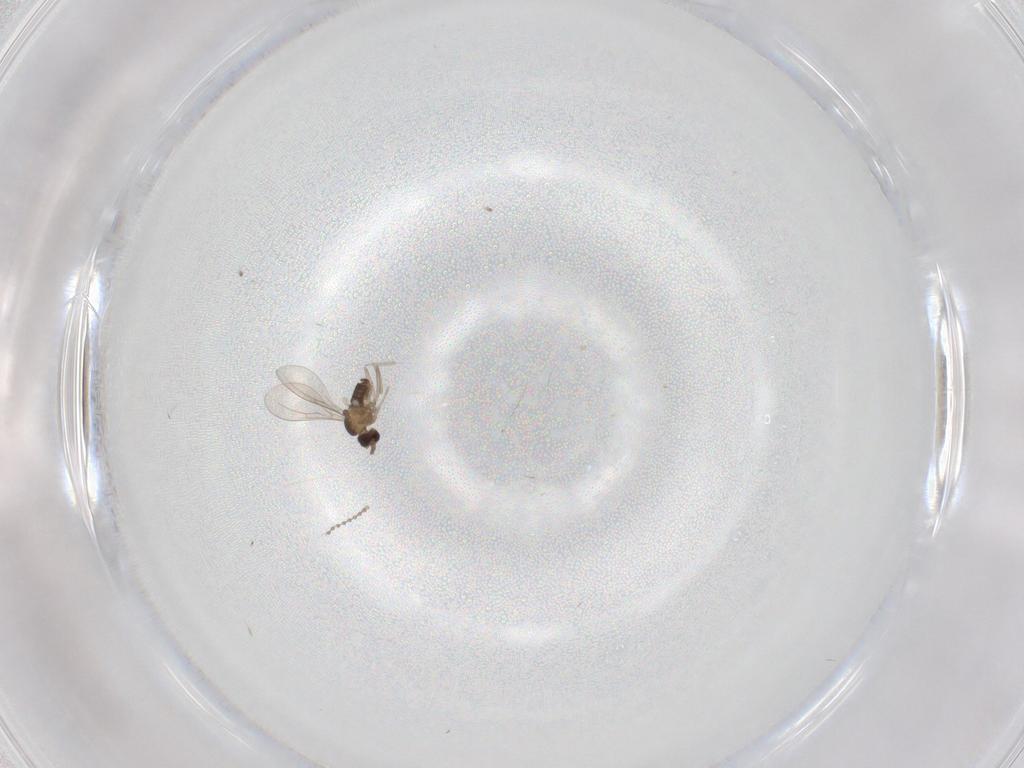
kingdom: Animalia
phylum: Arthropoda
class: Insecta
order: Diptera
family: Cecidomyiidae
